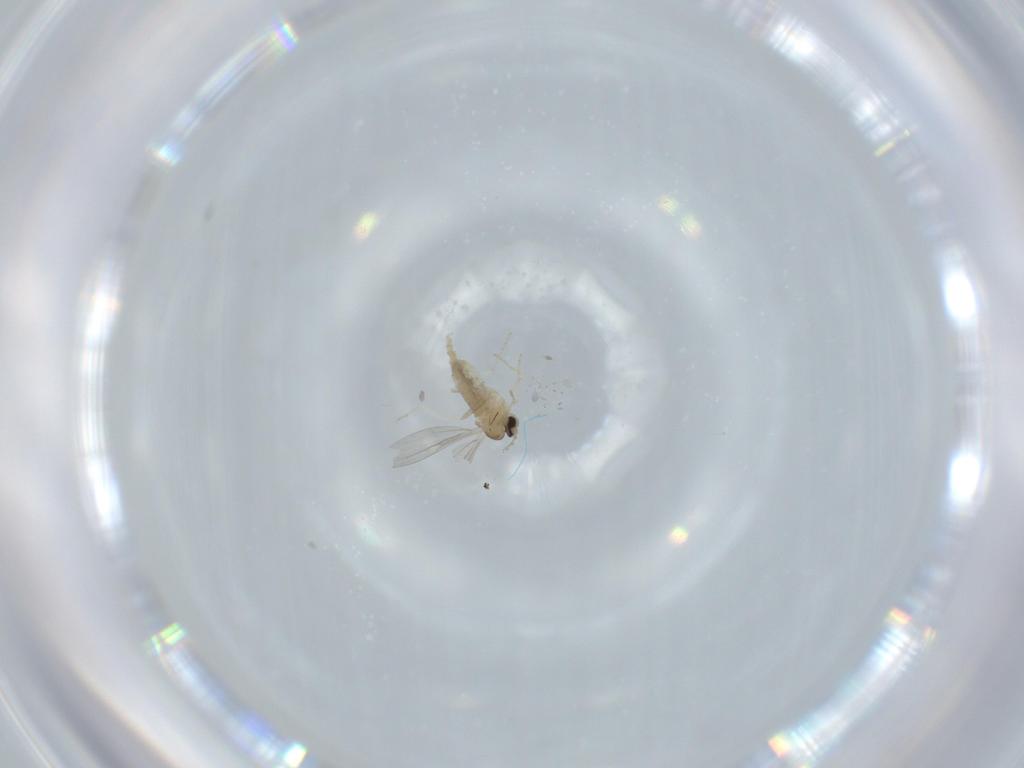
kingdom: Animalia
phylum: Arthropoda
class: Insecta
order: Diptera
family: Cecidomyiidae
